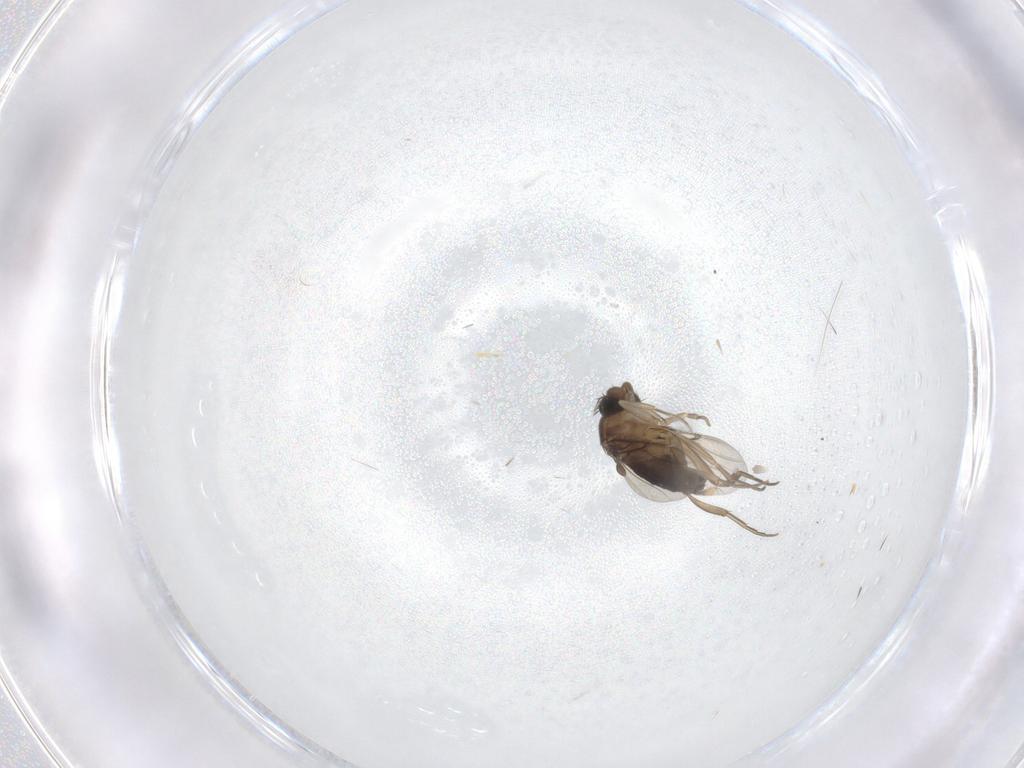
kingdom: Animalia
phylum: Arthropoda
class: Insecta
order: Diptera
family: Phoridae
